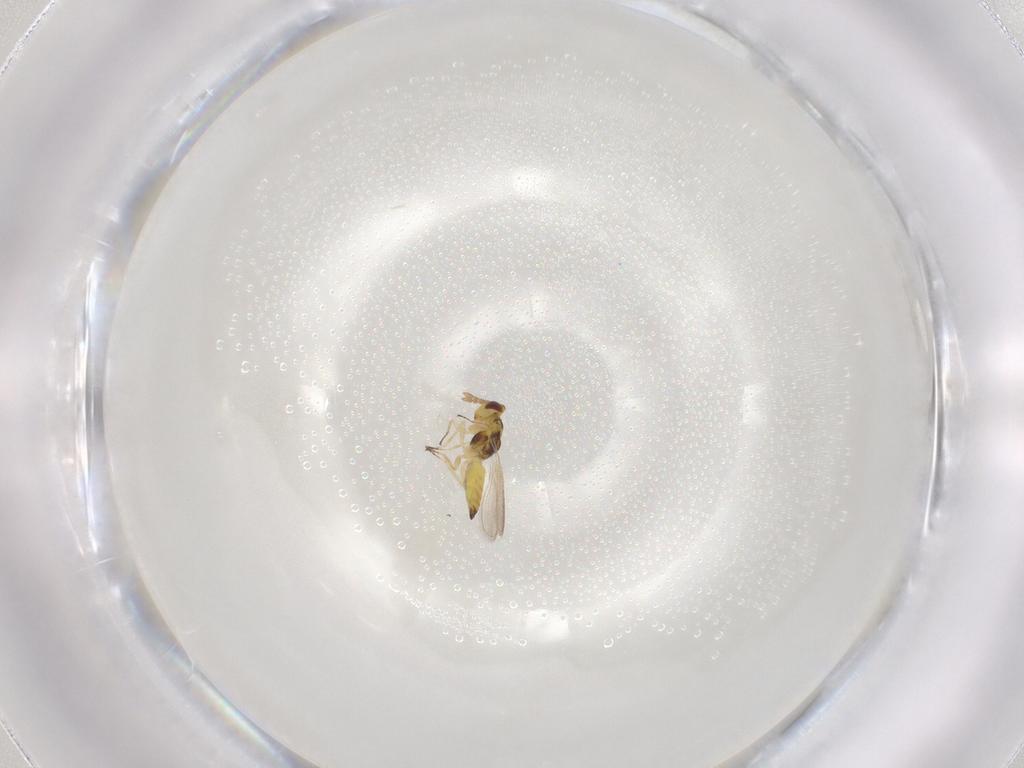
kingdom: Animalia
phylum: Arthropoda
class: Insecta
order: Hymenoptera
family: Eulophidae
